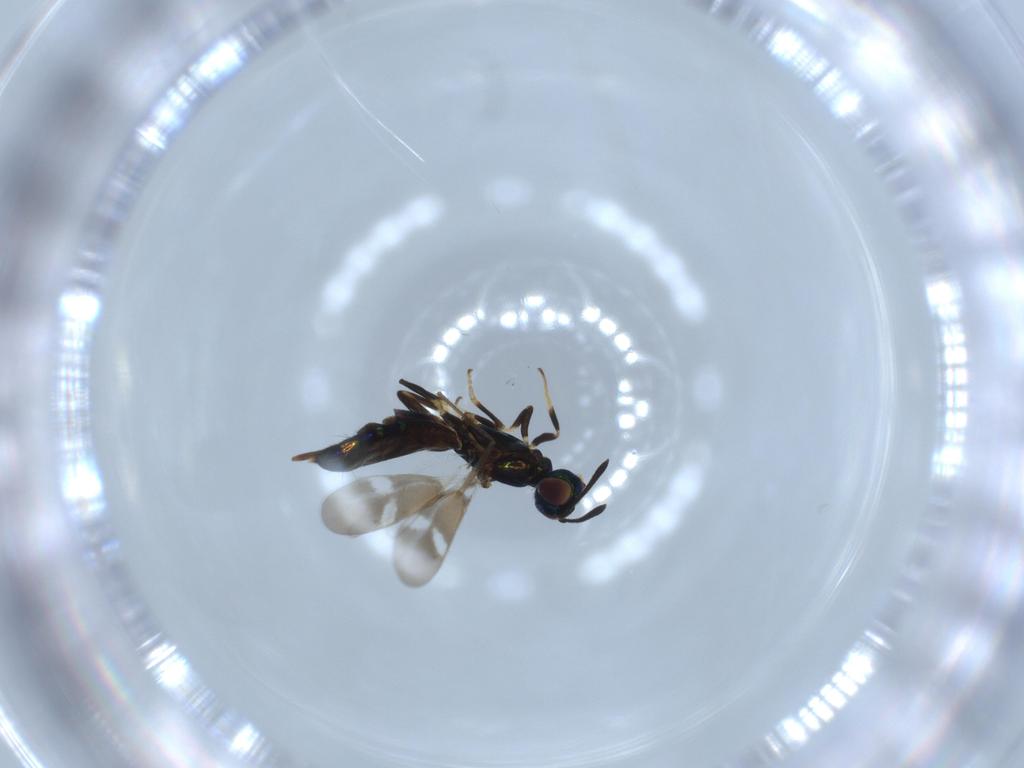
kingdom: Animalia
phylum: Arthropoda
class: Insecta
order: Hymenoptera
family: Eupelmidae
